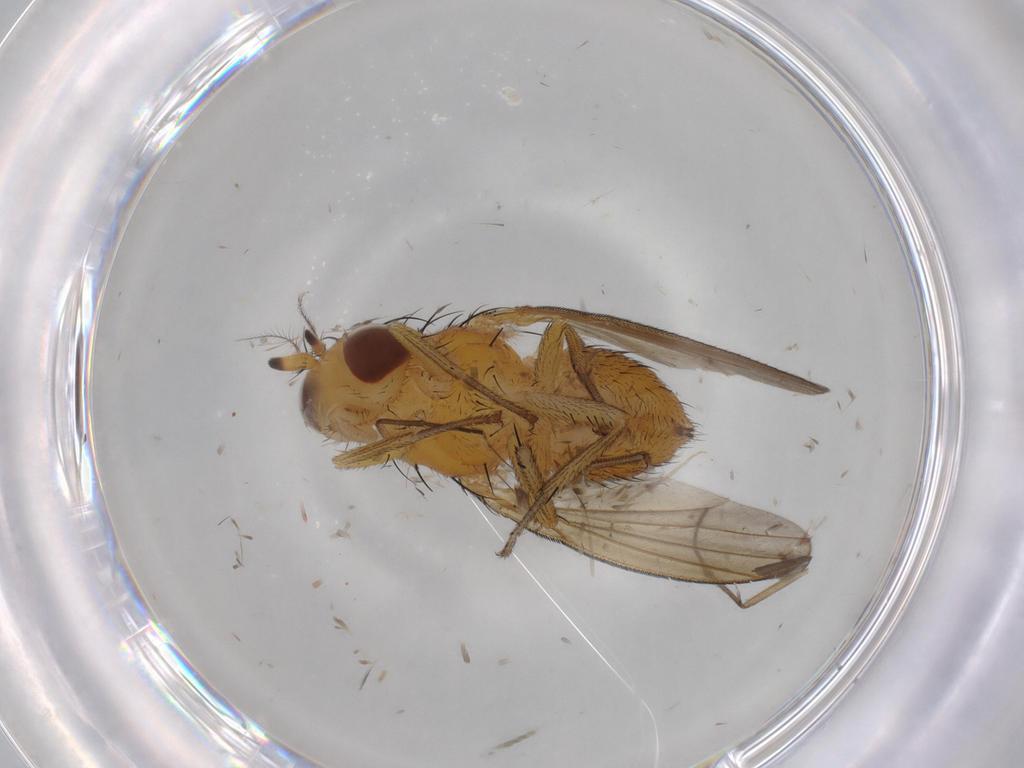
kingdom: Animalia
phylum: Arthropoda
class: Insecta
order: Diptera
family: Lauxaniidae
